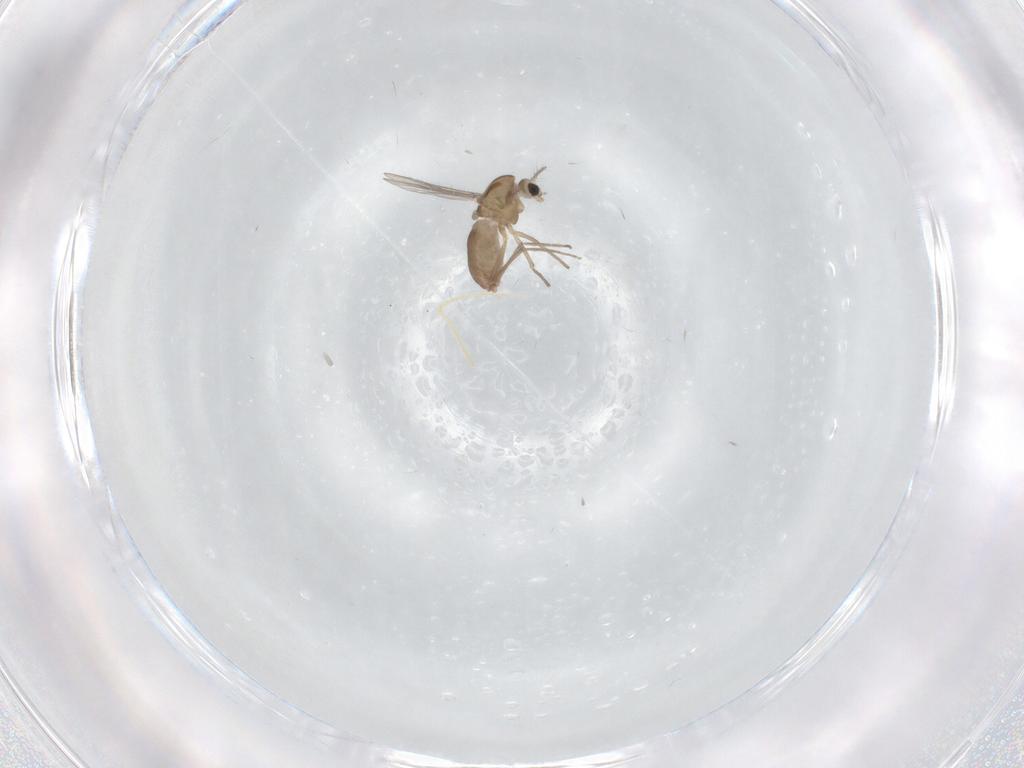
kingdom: Animalia
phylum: Arthropoda
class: Insecta
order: Diptera
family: Chironomidae
